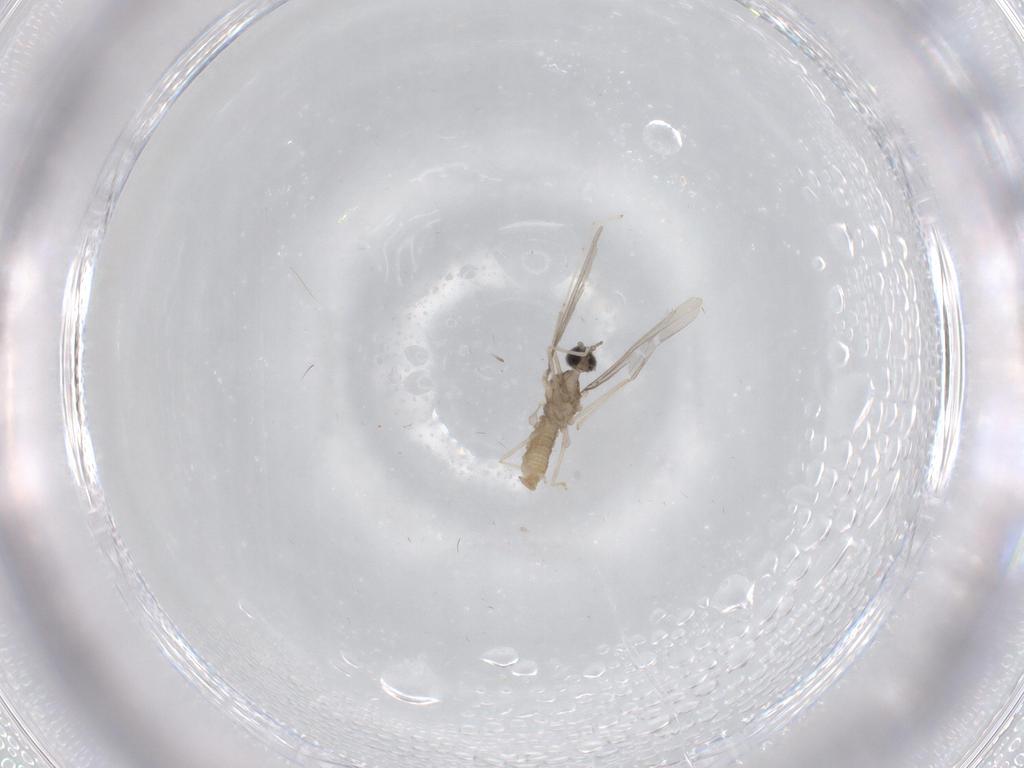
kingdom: Animalia
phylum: Arthropoda
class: Insecta
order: Diptera
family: Cecidomyiidae
